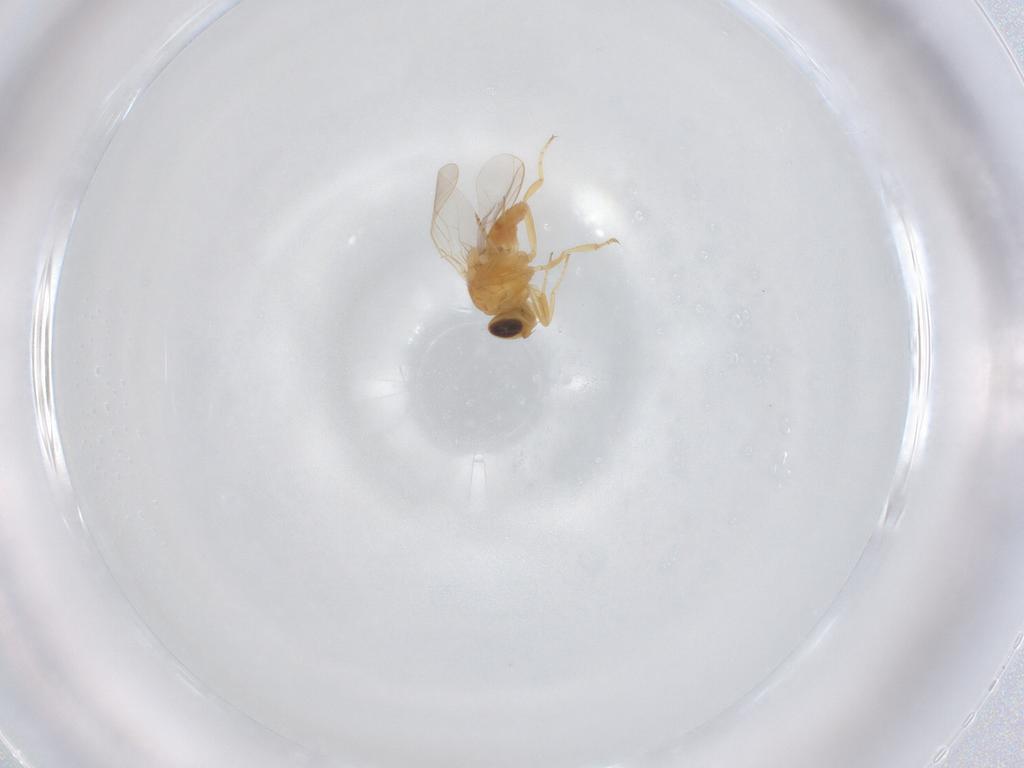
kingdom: Animalia
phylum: Arthropoda
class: Insecta
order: Diptera
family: Chloropidae
